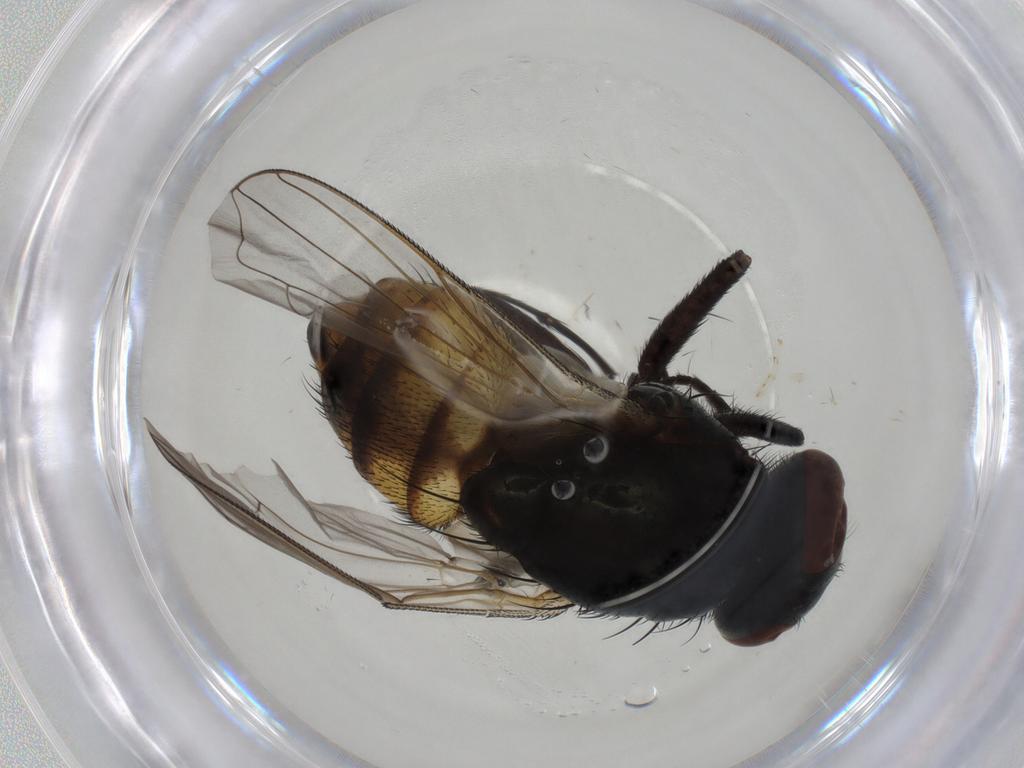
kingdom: Animalia
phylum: Arthropoda
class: Insecta
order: Diptera
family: Muscidae
